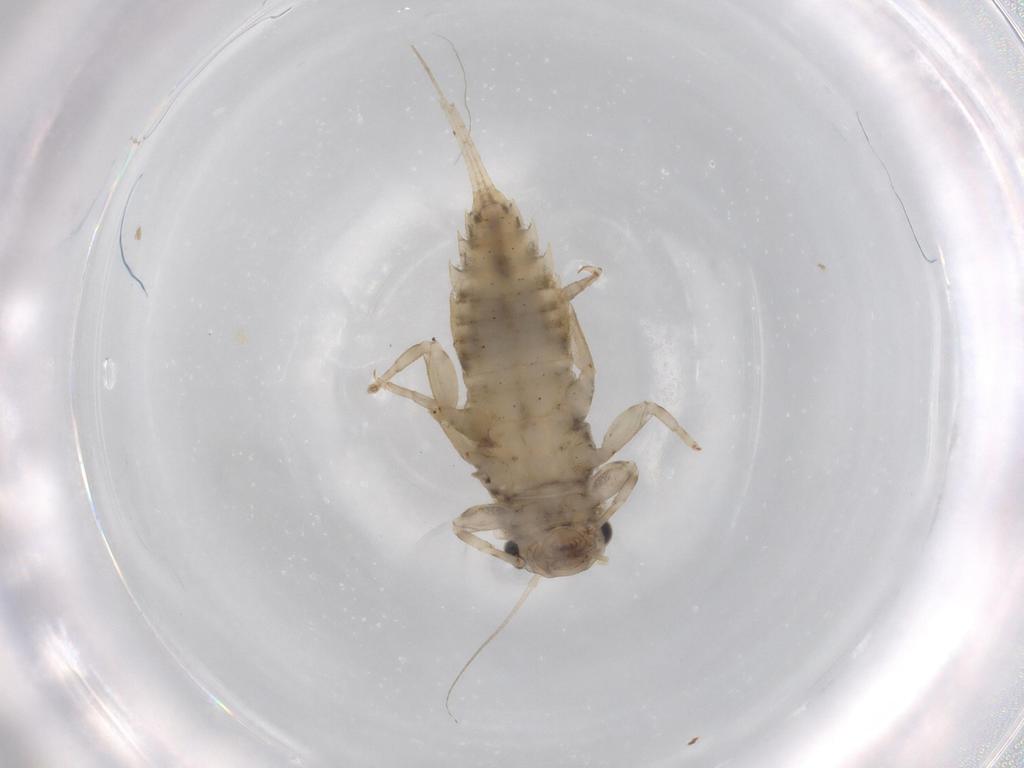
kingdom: Animalia
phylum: Arthropoda
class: Insecta
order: Ephemeroptera
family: Caenidae
